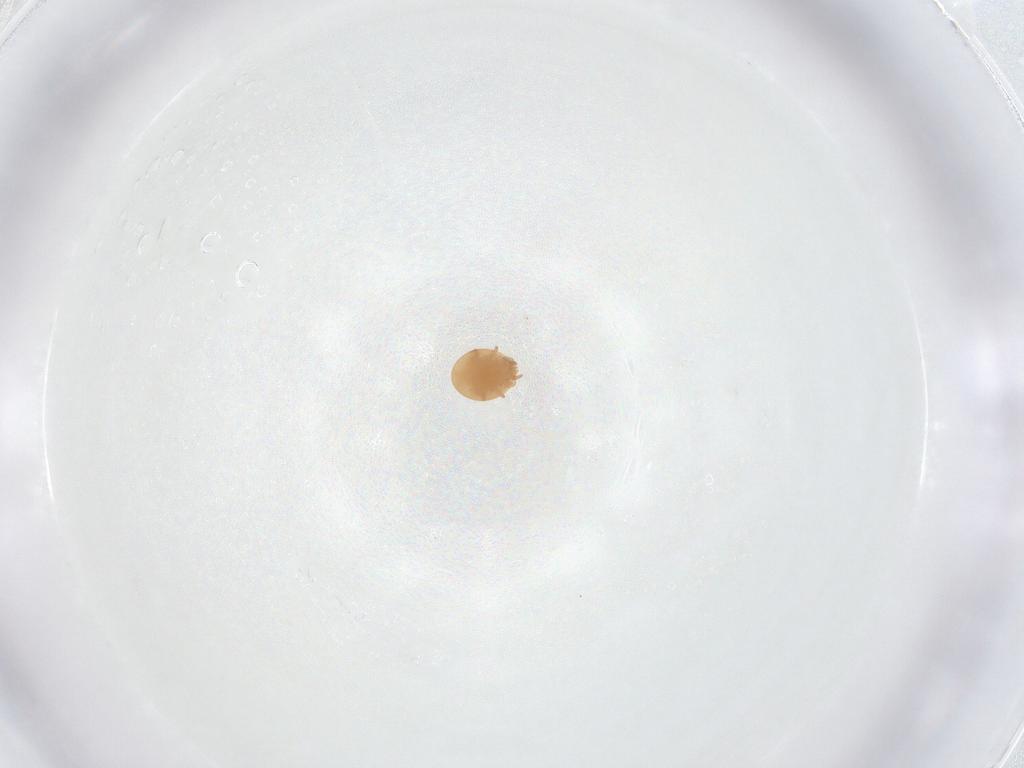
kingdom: Animalia
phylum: Arthropoda
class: Arachnida
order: Mesostigmata
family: Trematuridae
